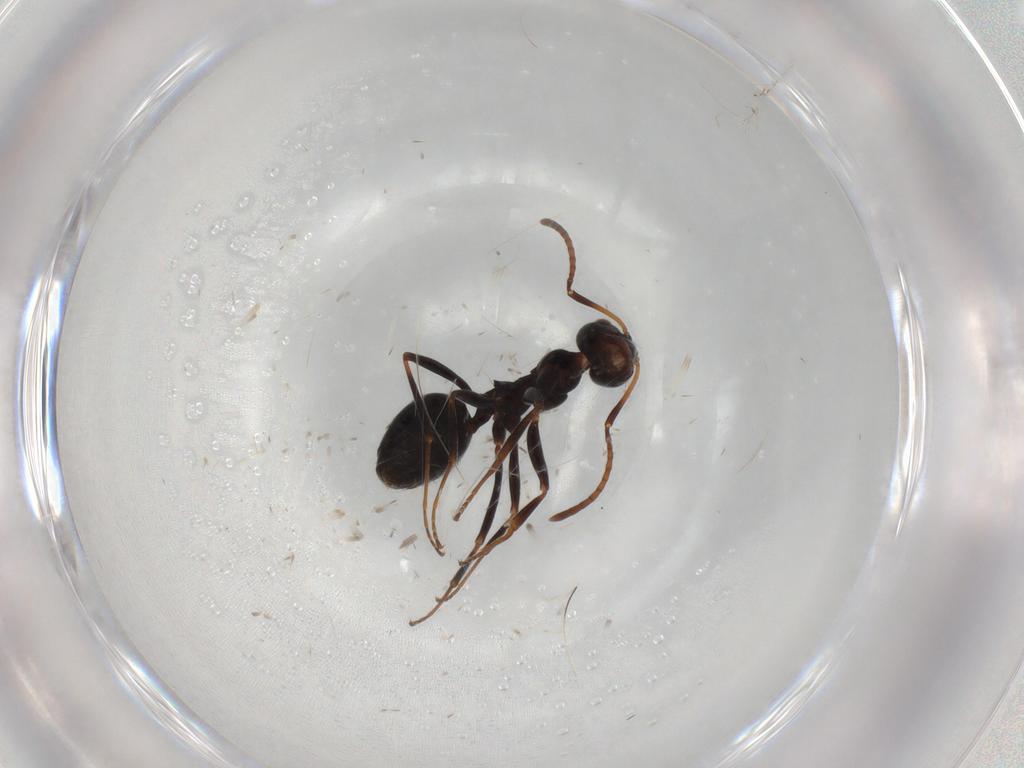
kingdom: Animalia
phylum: Arthropoda
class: Insecta
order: Hymenoptera
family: Formicidae
